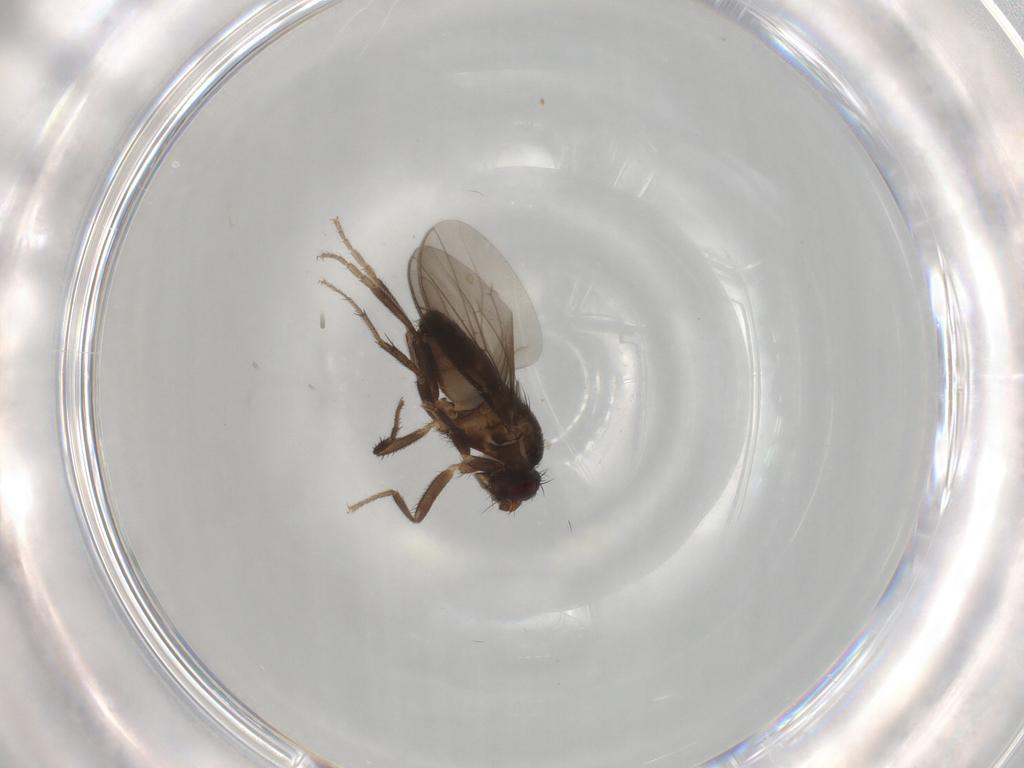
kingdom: Animalia
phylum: Arthropoda
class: Insecta
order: Diptera
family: Sphaeroceridae
